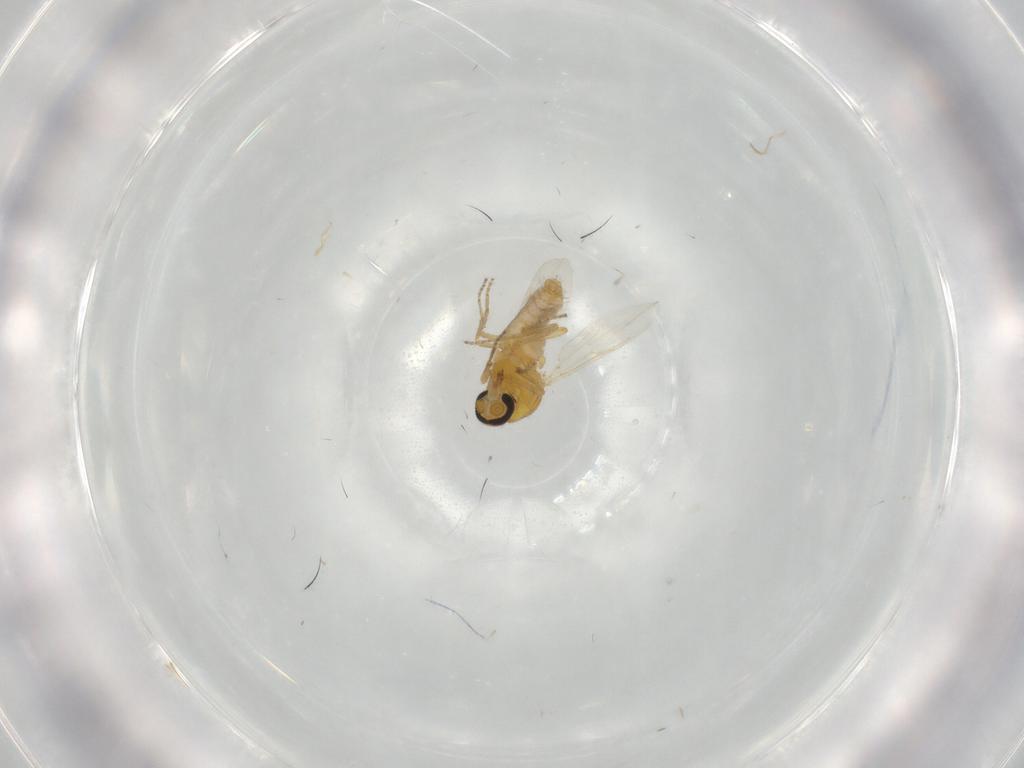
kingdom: Animalia
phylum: Arthropoda
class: Insecta
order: Diptera
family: Ceratopogonidae
